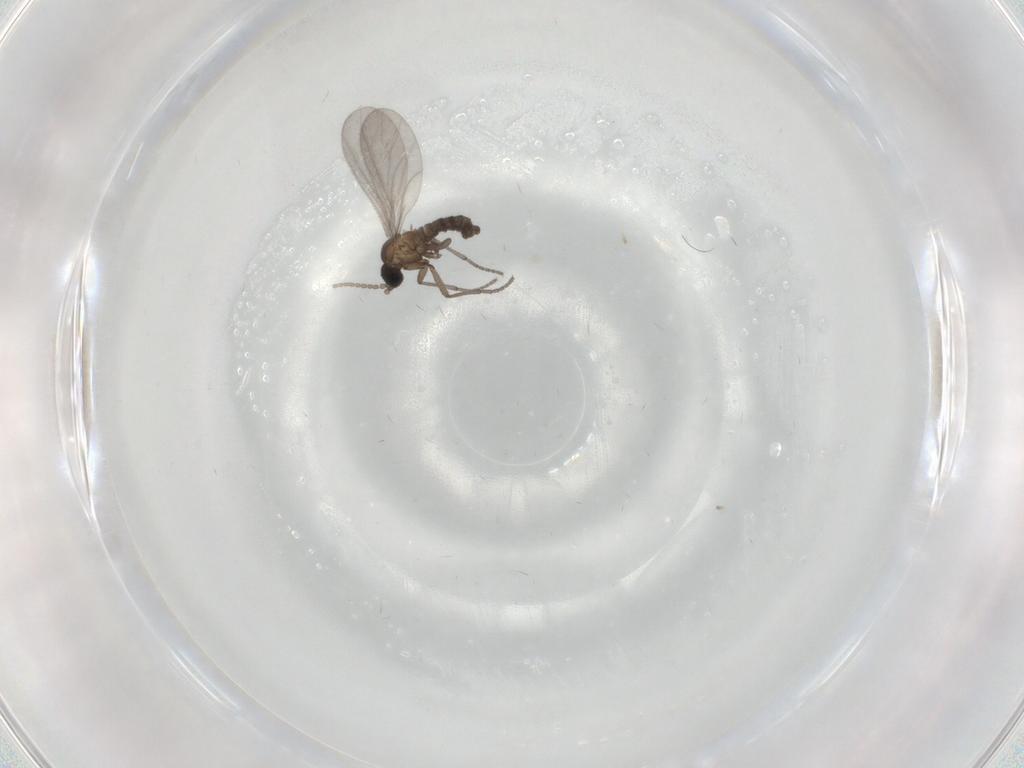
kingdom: Animalia
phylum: Arthropoda
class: Insecta
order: Diptera
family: Sciaridae
